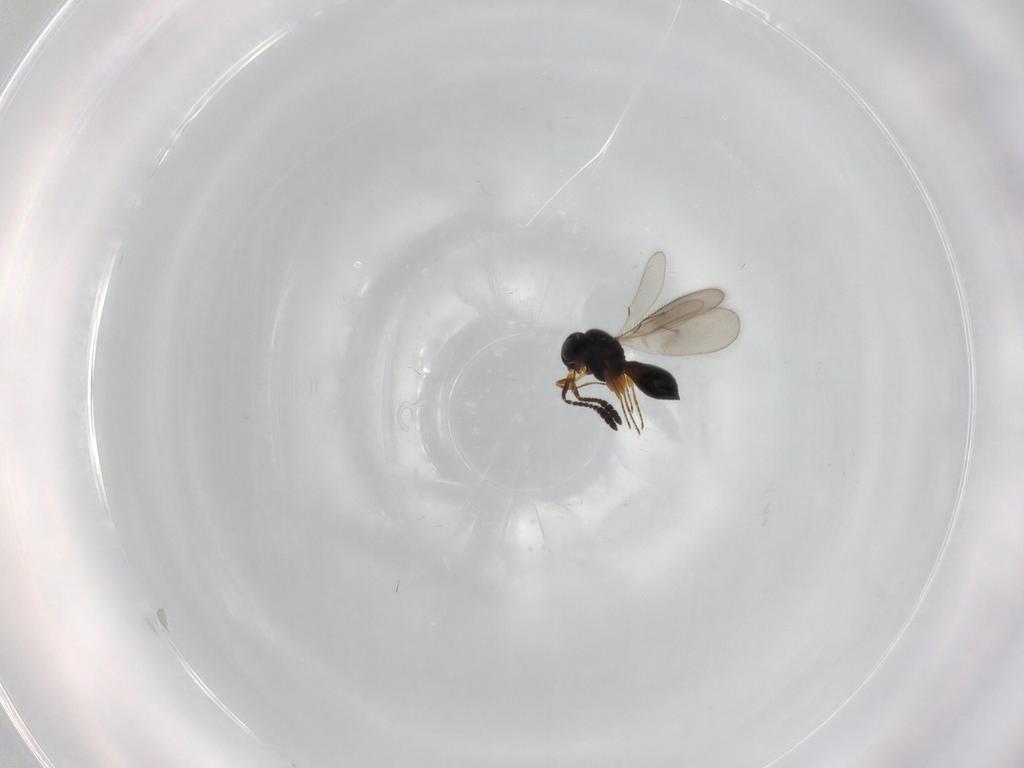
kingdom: Animalia
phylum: Arthropoda
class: Insecta
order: Hymenoptera
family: Scelionidae
